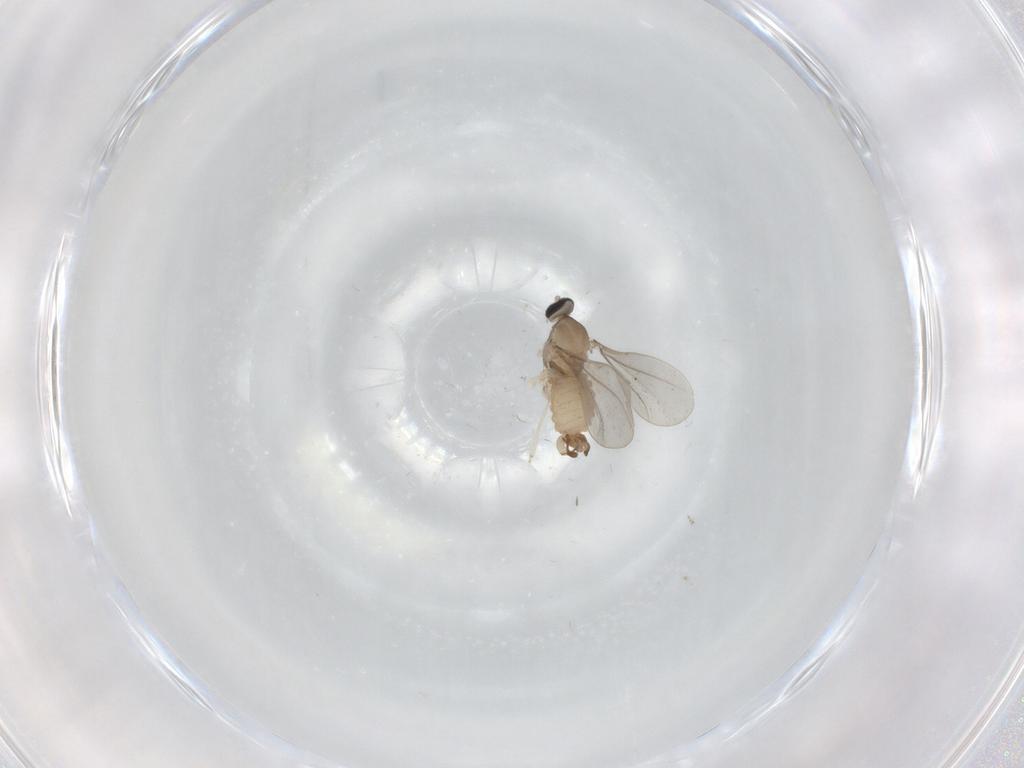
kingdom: Animalia
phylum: Arthropoda
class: Insecta
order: Diptera
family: Cecidomyiidae
